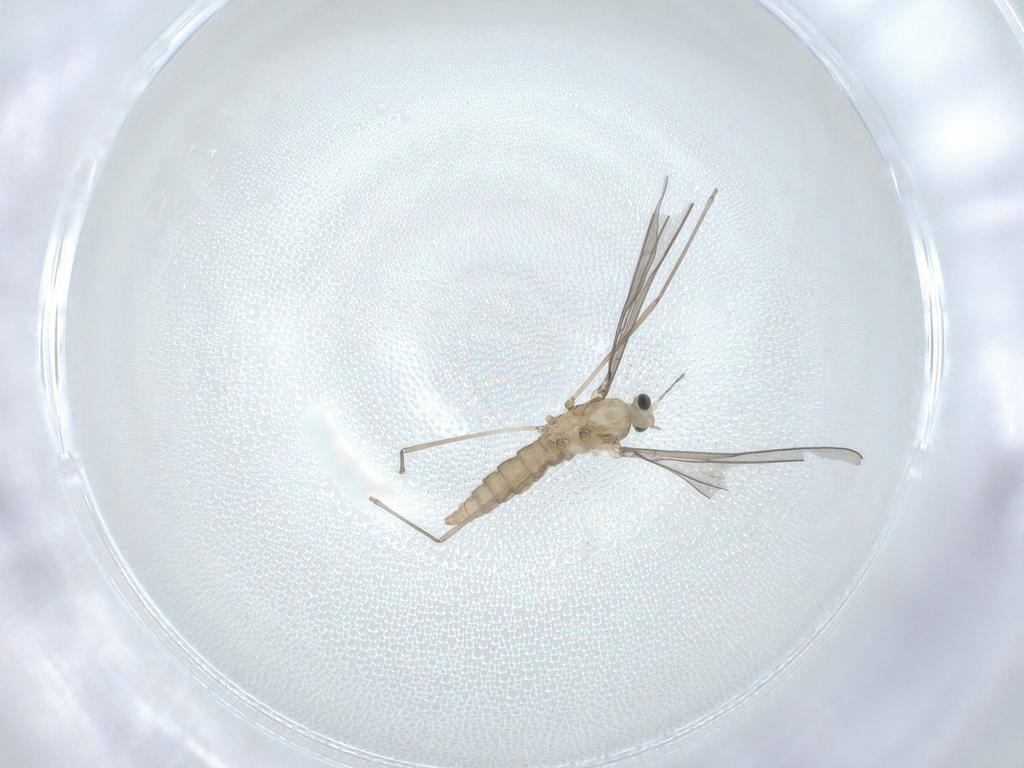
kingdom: Animalia
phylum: Arthropoda
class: Insecta
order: Diptera
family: Cecidomyiidae
